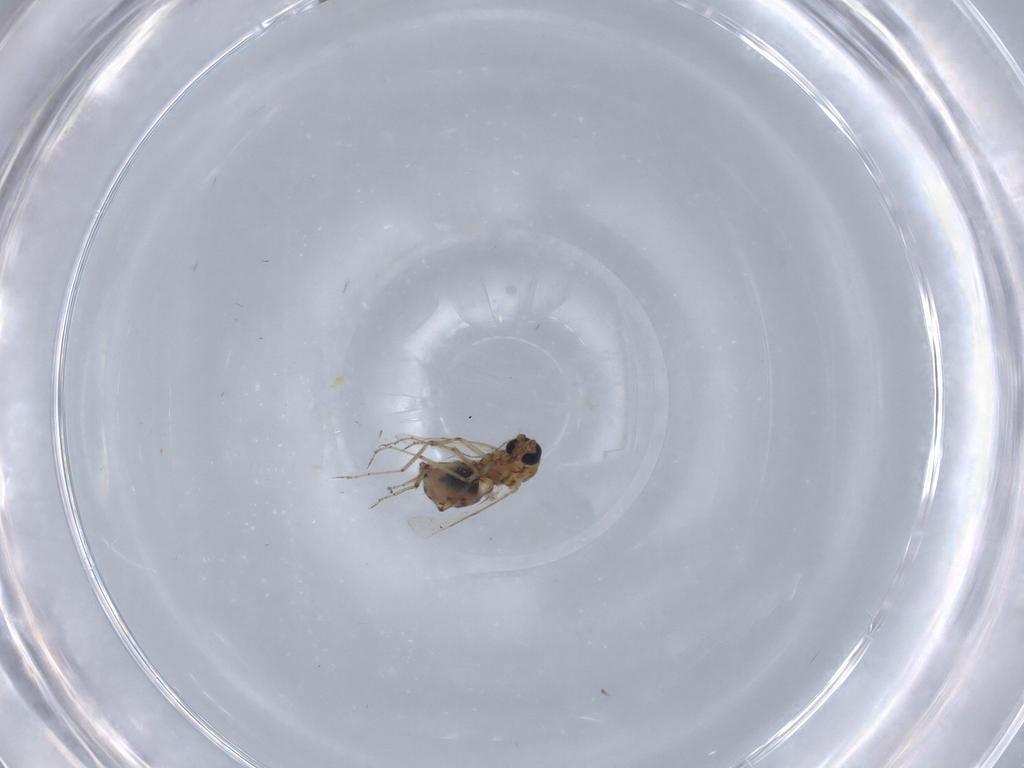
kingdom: Animalia
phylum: Arthropoda
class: Insecta
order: Diptera
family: Ceratopogonidae
